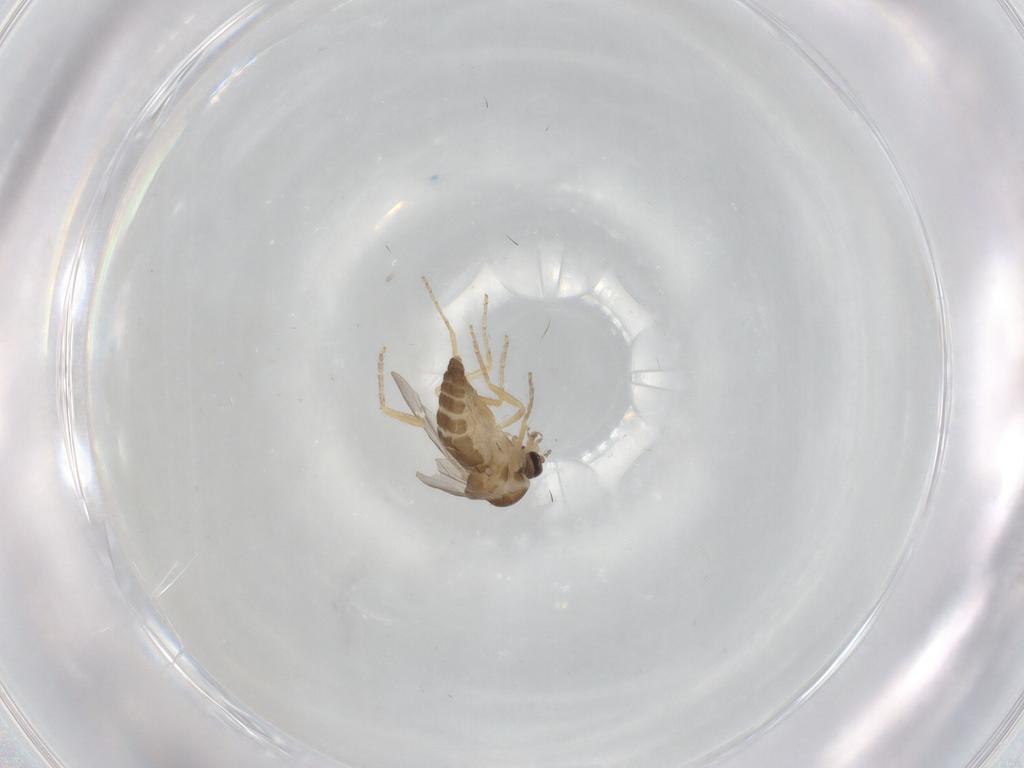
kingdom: Animalia
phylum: Arthropoda
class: Insecta
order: Diptera
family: Ceratopogonidae
